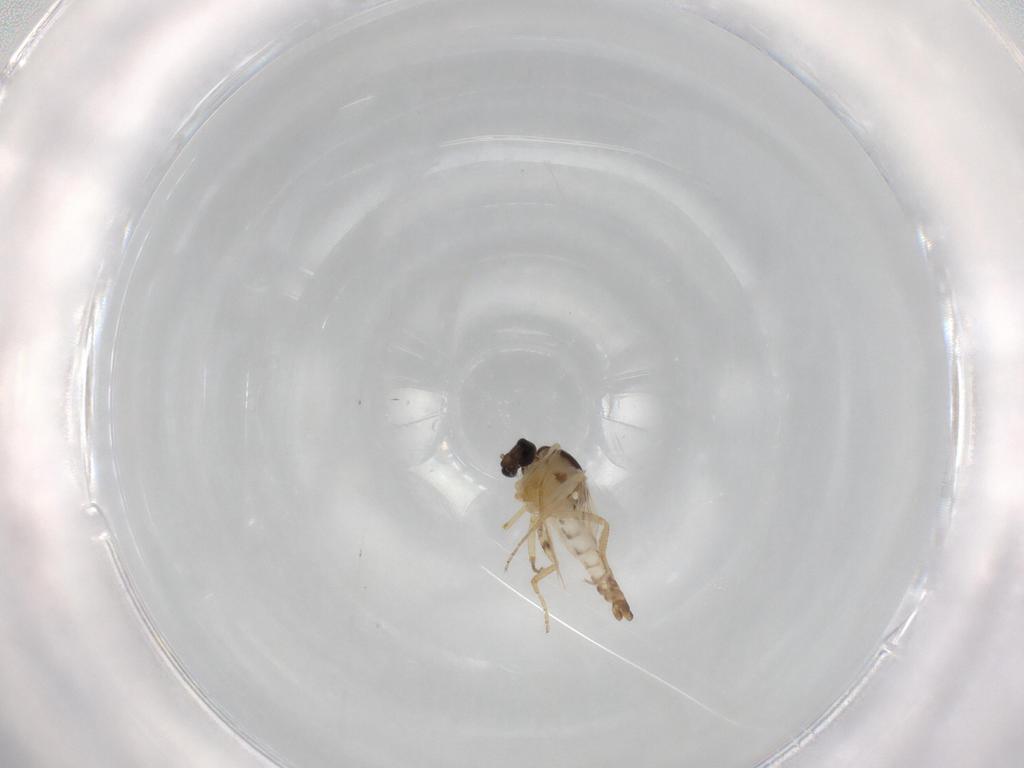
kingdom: Animalia
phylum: Arthropoda
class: Insecta
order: Diptera
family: Ceratopogonidae
